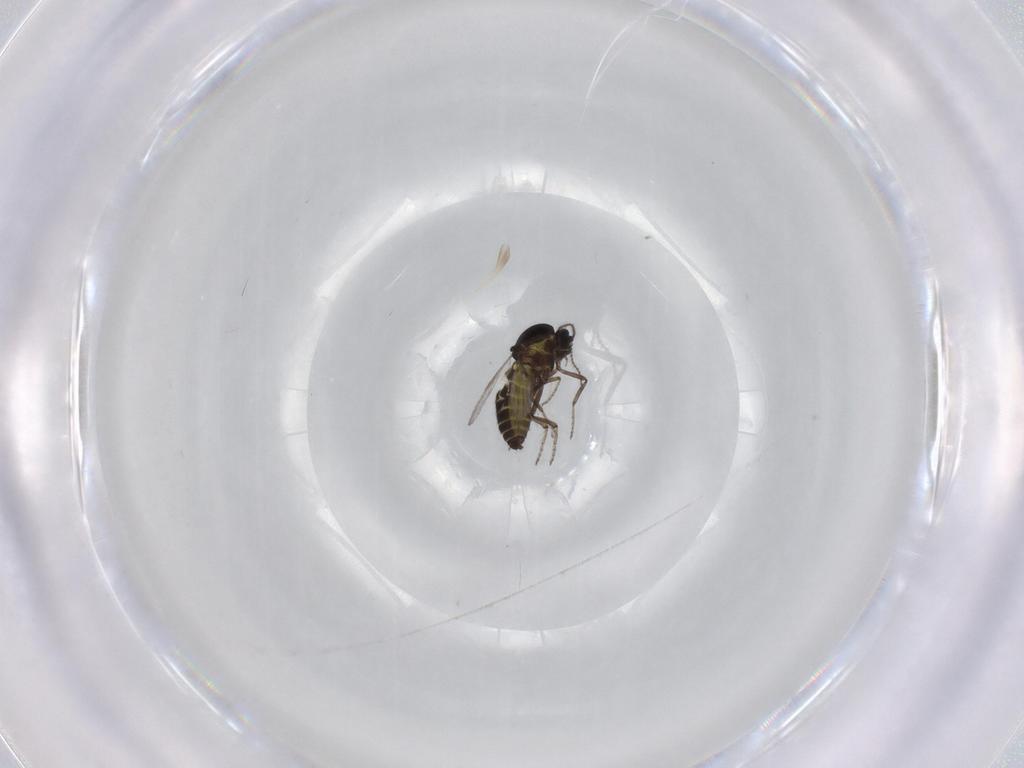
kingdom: Animalia
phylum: Arthropoda
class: Insecta
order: Diptera
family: Ceratopogonidae
